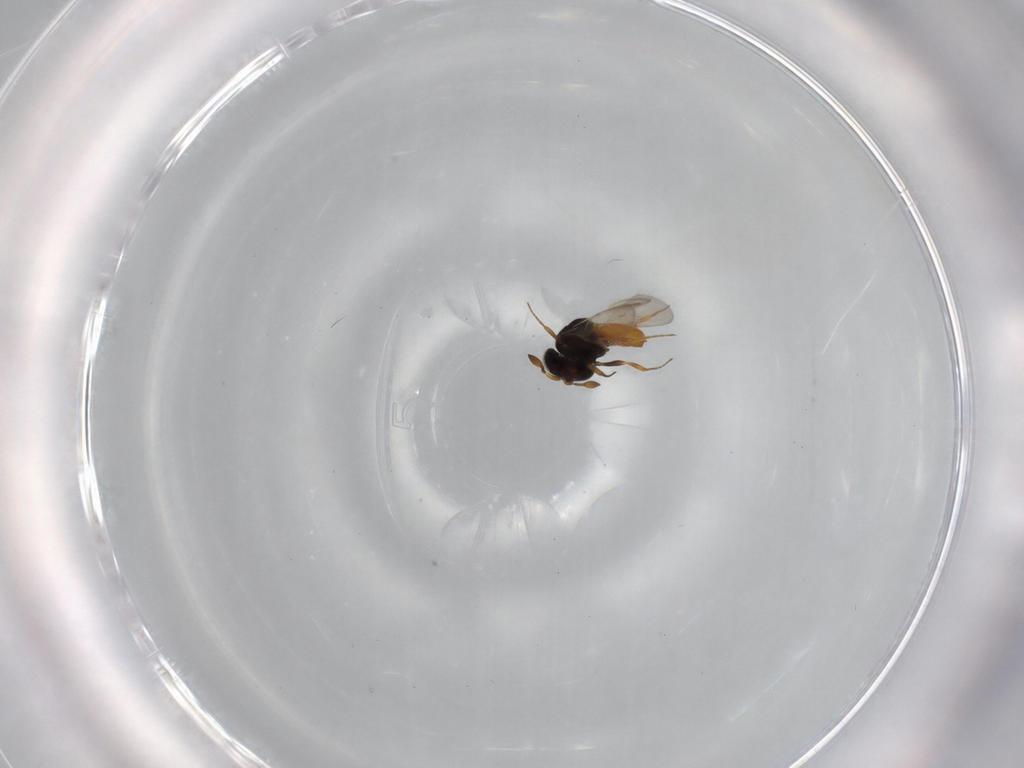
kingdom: Animalia
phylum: Arthropoda
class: Insecta
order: Hymenoptera
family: Scelionidae
